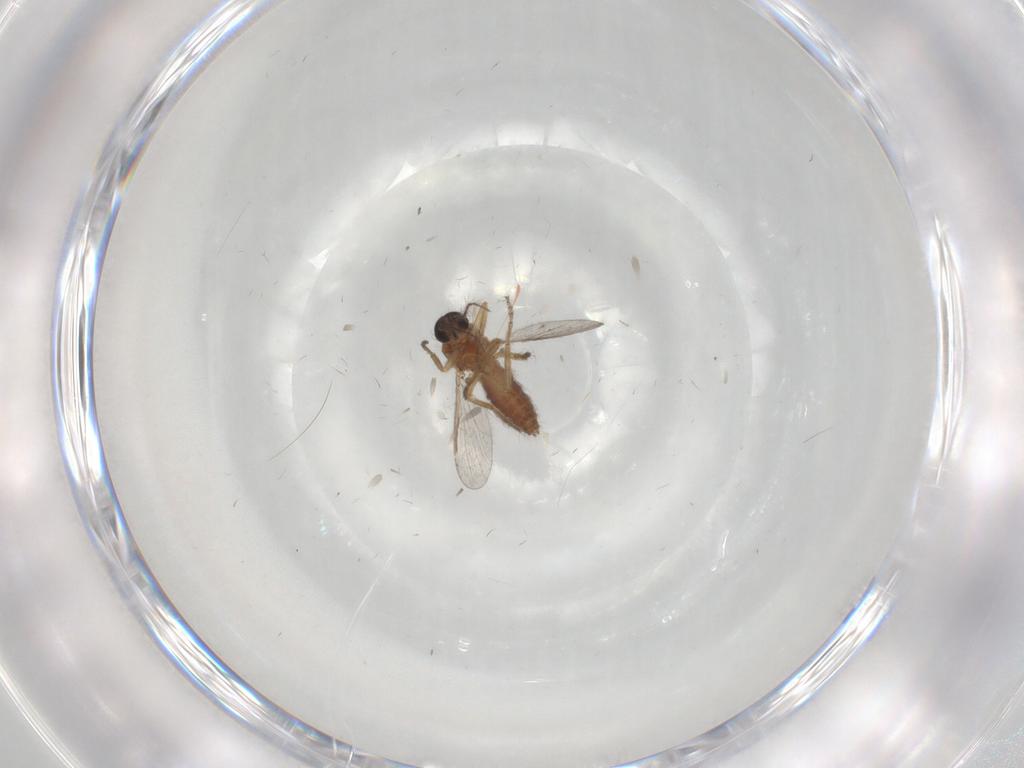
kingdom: Animalia
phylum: Arthropoda
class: Insecta
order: Diptera
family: Ceratopogonidae
